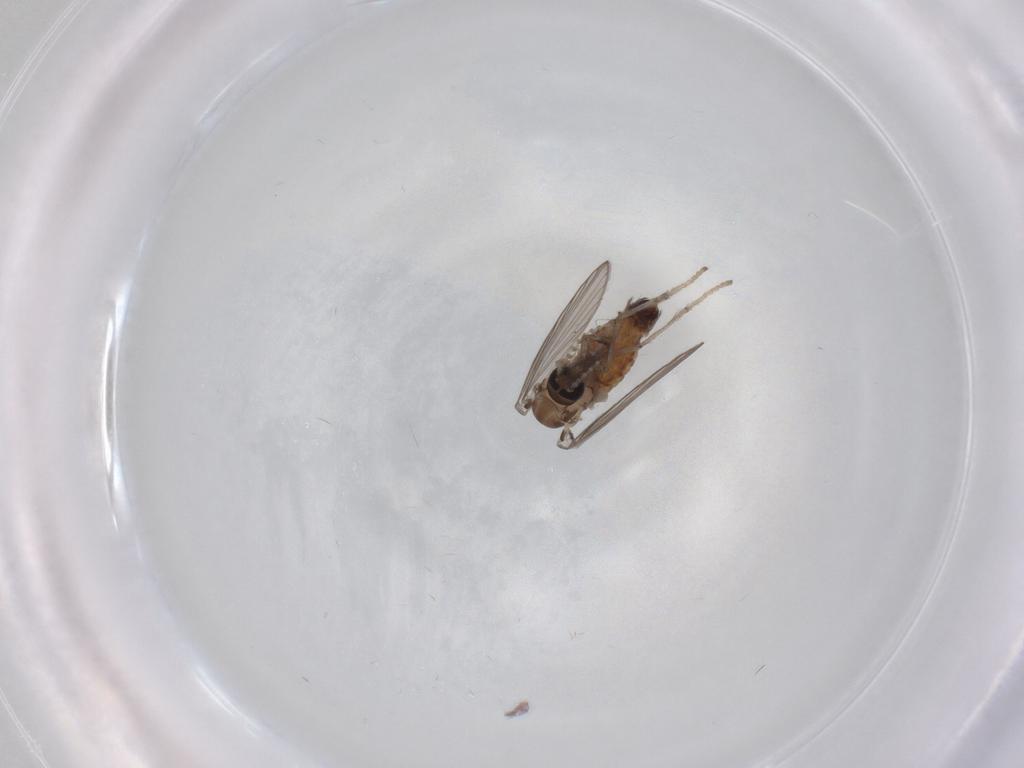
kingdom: Animalia
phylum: Arthropoda
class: Insecta
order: Diptera
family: Psychodidae
